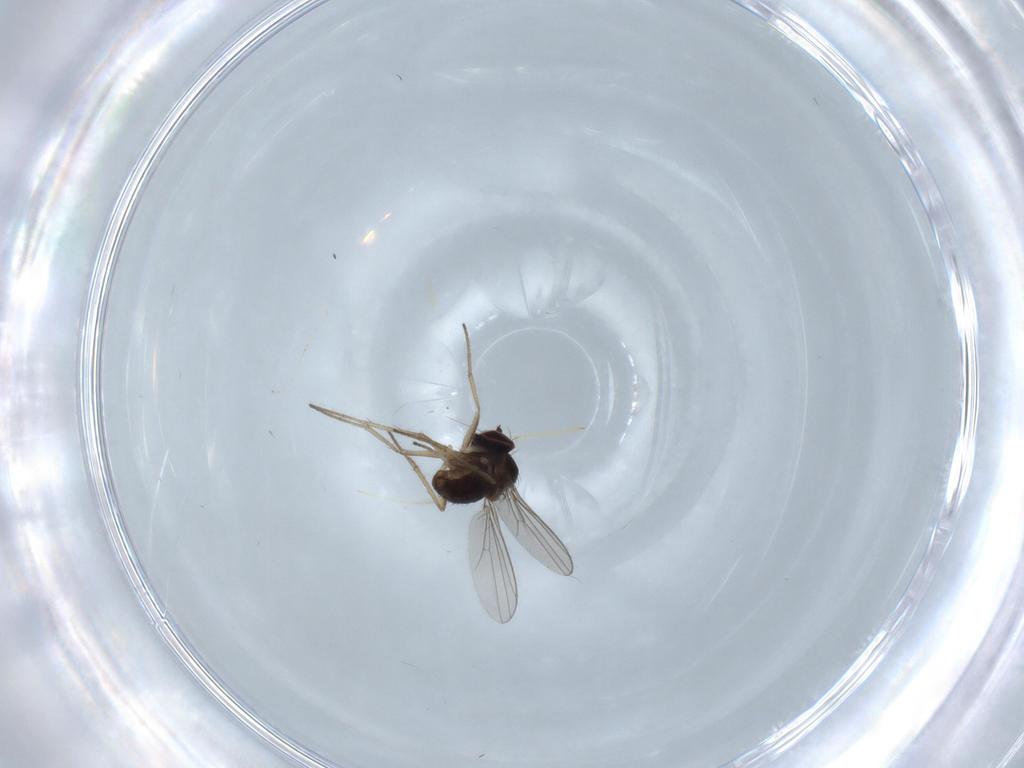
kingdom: Animalia
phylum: Arthropoda
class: Insecta
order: Diptera
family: Dolichopodidae
